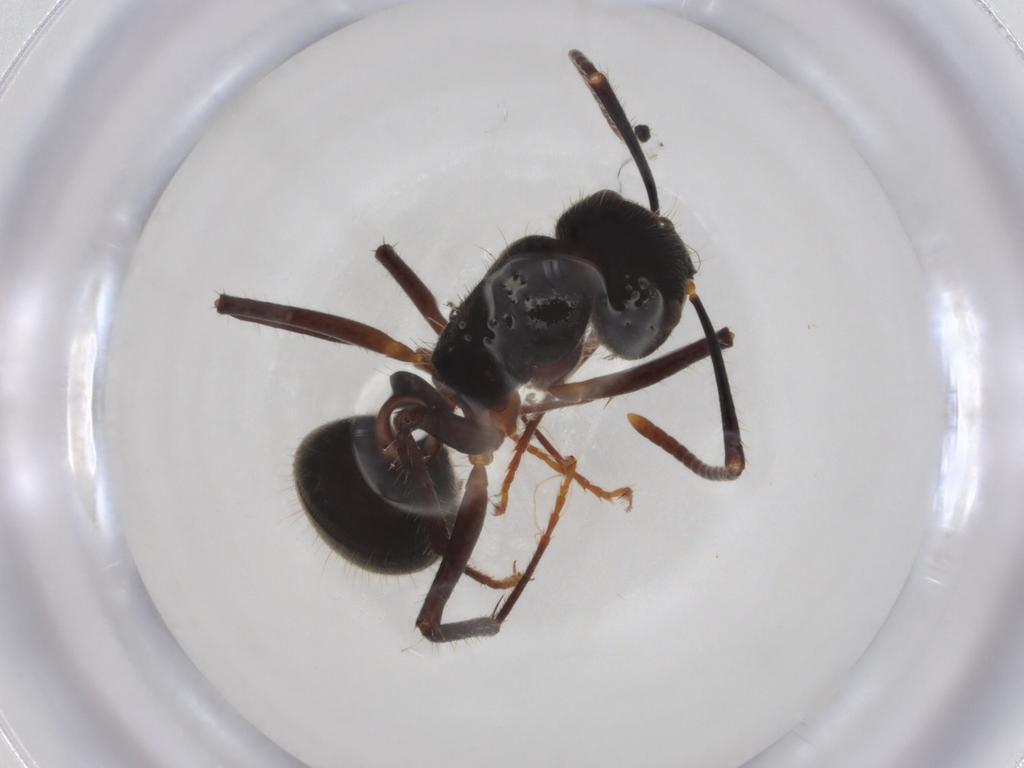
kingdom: Animalia
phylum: Arthropoda
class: Insecta
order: Hymenoptera
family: Formicidae
